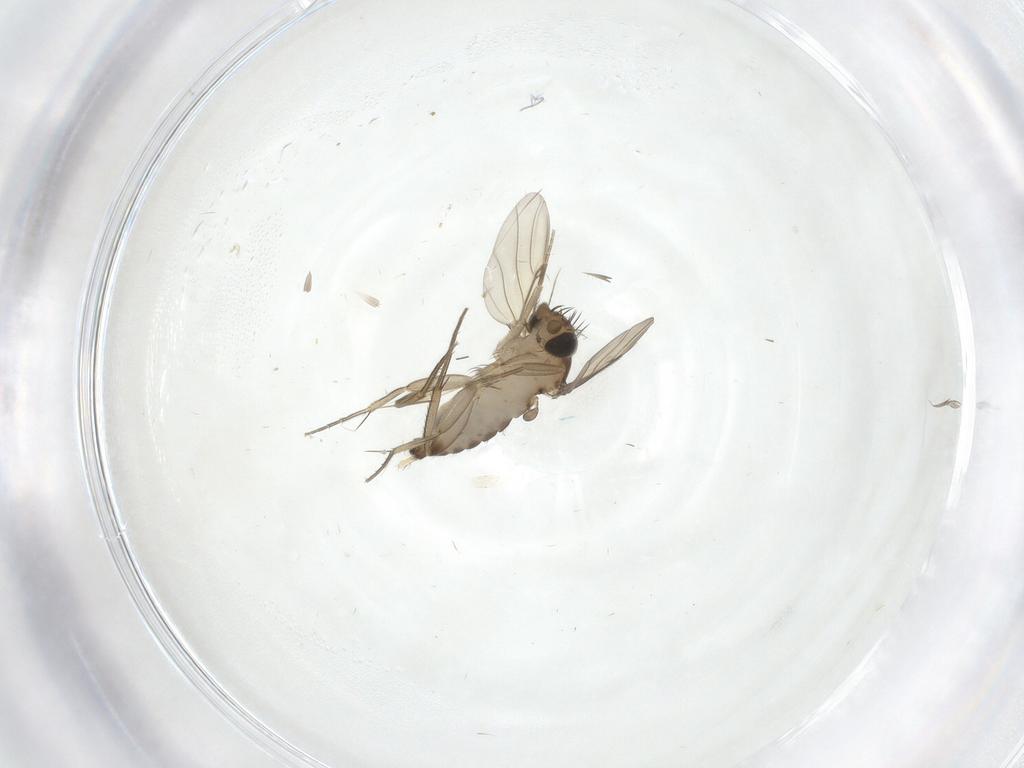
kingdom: Animalia
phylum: Arthropoda
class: Insecta
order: Diptera
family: Phoridae
